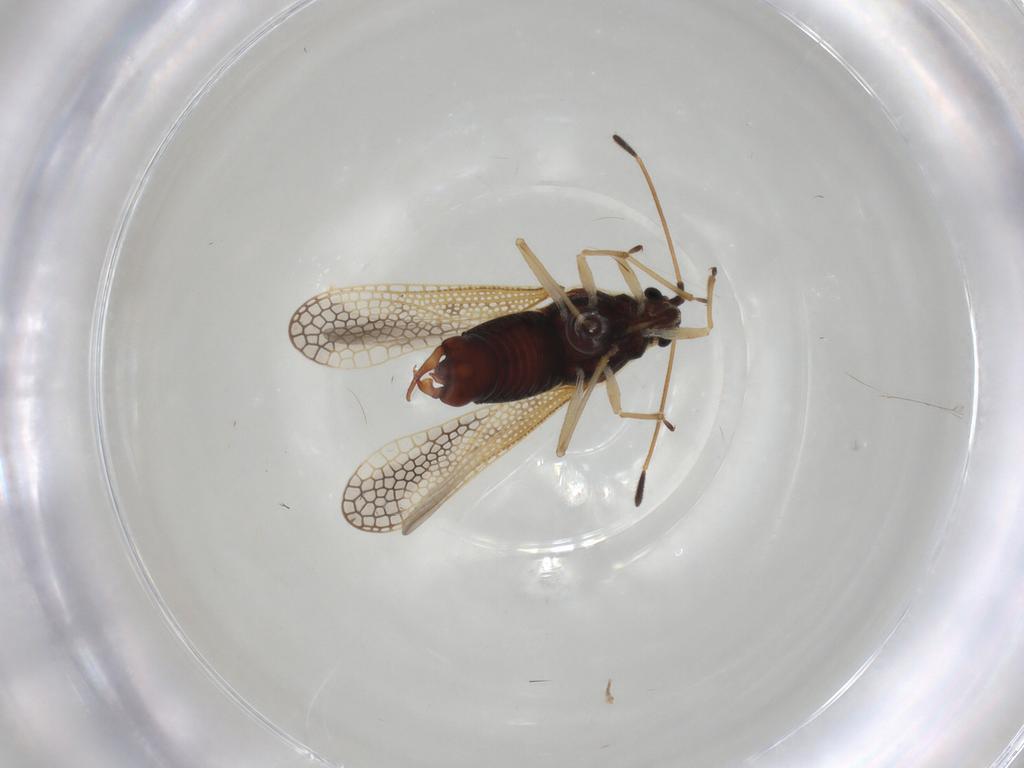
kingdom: Animalia
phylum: Arthropoda
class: Insecta
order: Hemiptera
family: Tingidae
